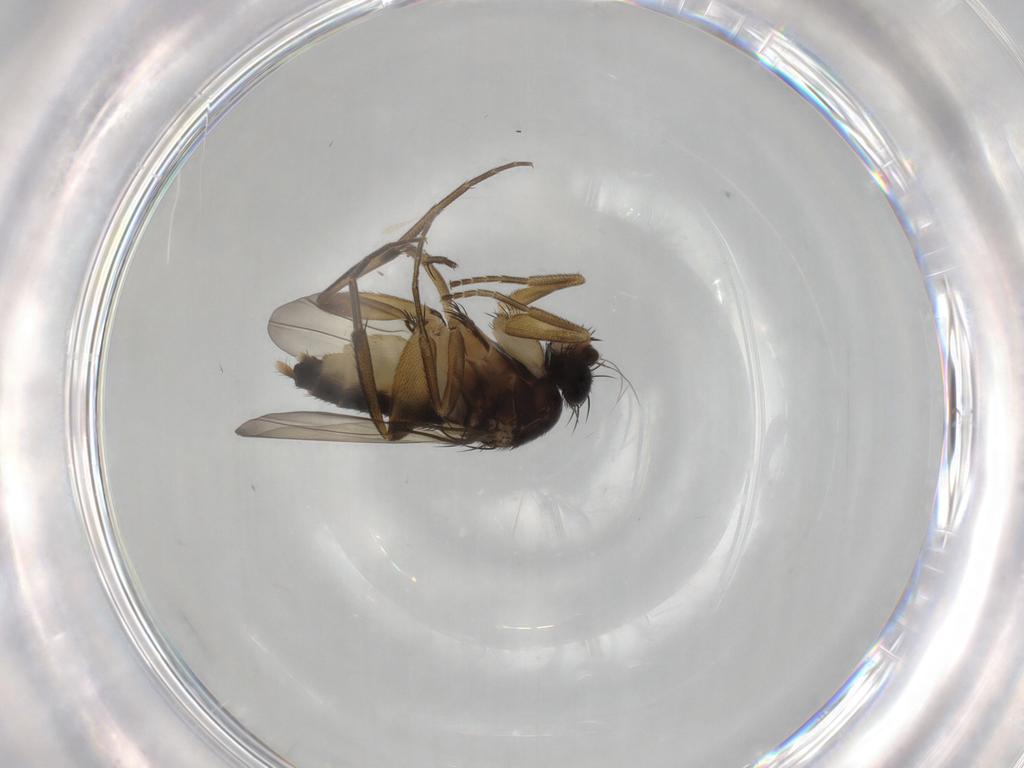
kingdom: Animalia
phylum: Arthropoda
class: Insecta
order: Diptera
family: Phoridae
